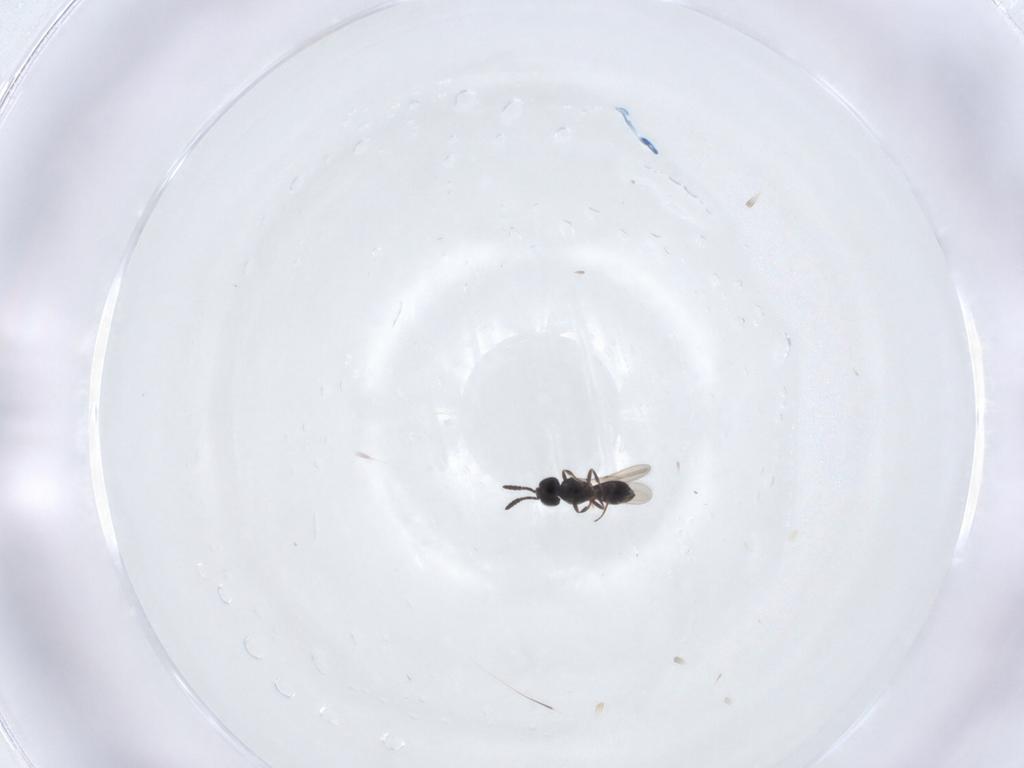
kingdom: Animalia
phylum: Arthropoda
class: Insecta
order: Hymenoptera
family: Scelionidae
